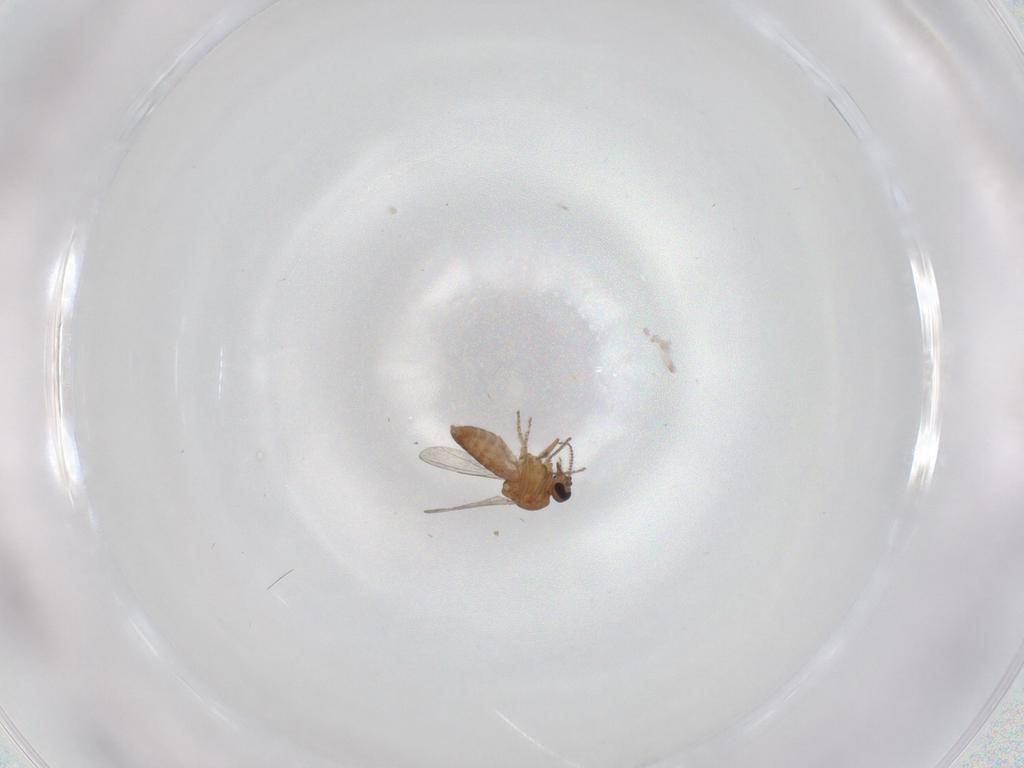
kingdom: Animalia
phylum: Arthropoda
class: Insecta
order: Diptera
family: Ceratopogonidae
